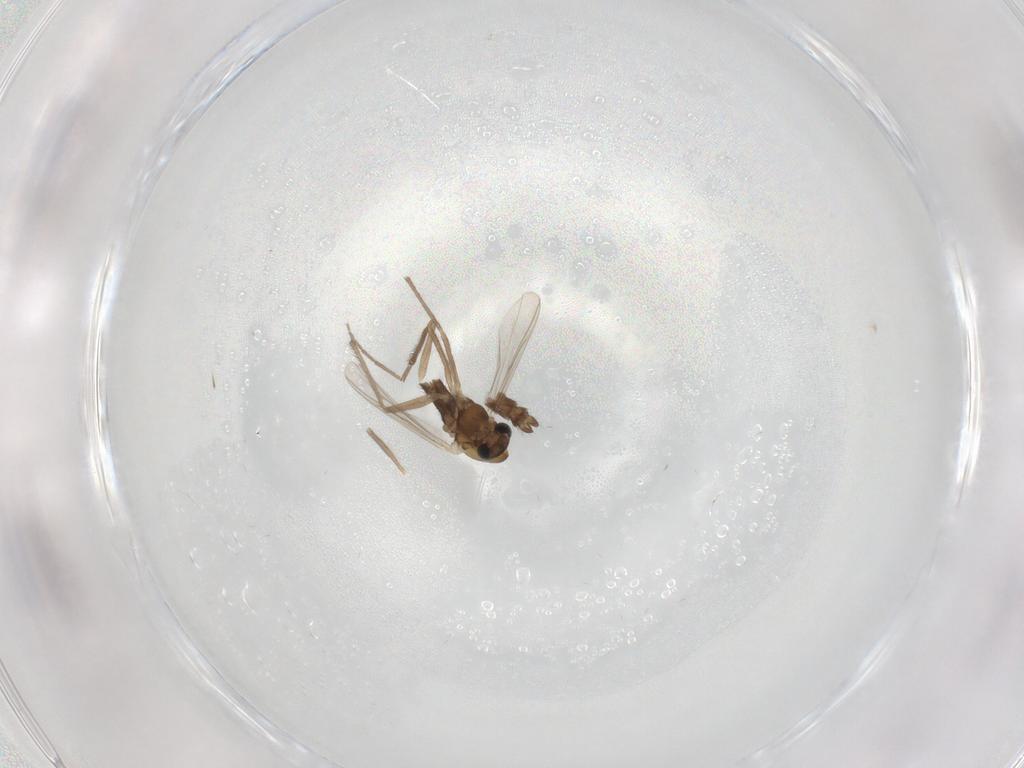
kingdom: Animalia
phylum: Arthropoda
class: Insecta
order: Diptera
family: Chironomidae
